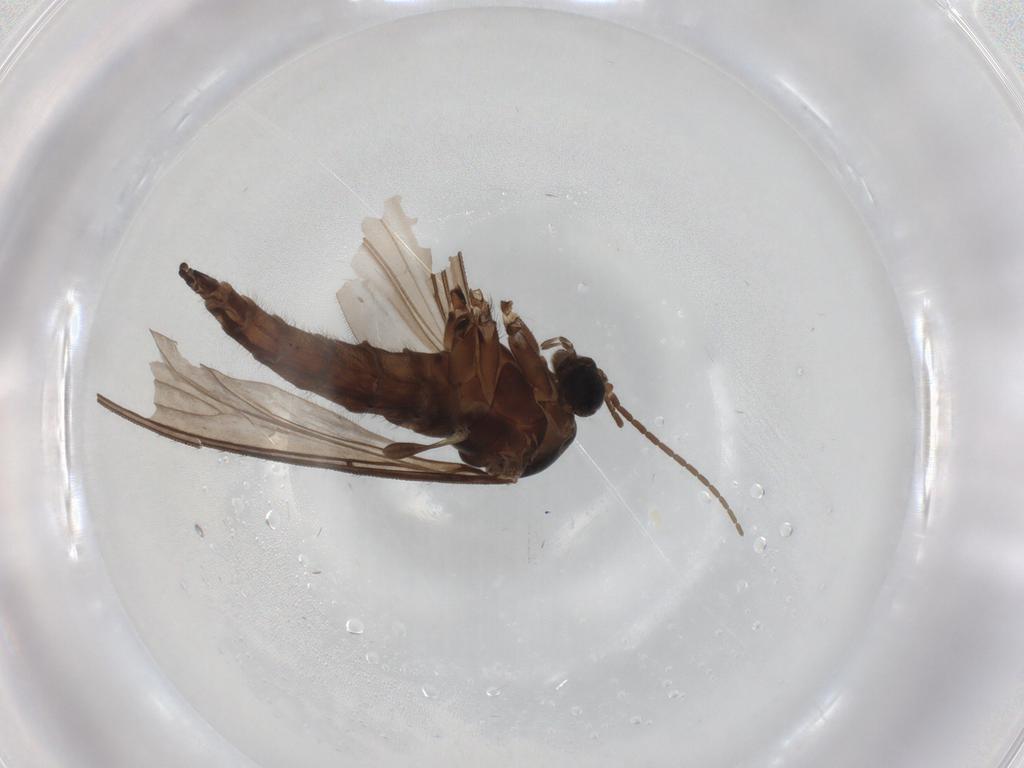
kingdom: Animalia
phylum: Arthropoda
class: Insecta
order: Diptera
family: Sciaridae
